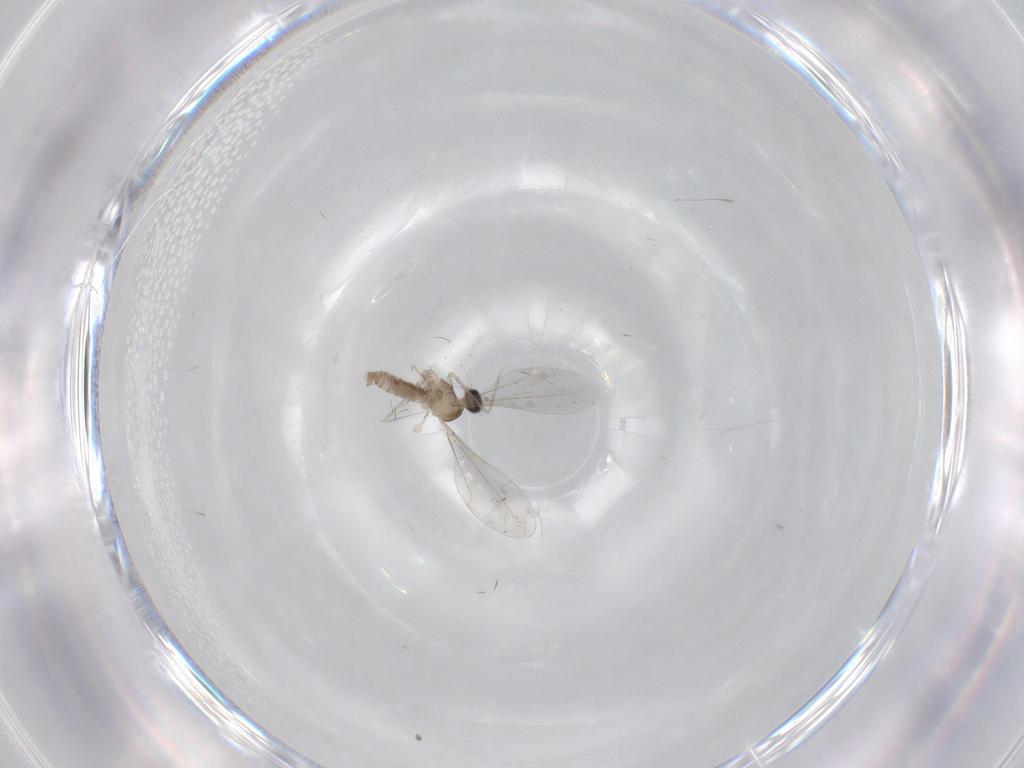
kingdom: Animalia
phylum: Arthropoda
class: Insecta
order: Diptera
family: Cecidomyiidae
